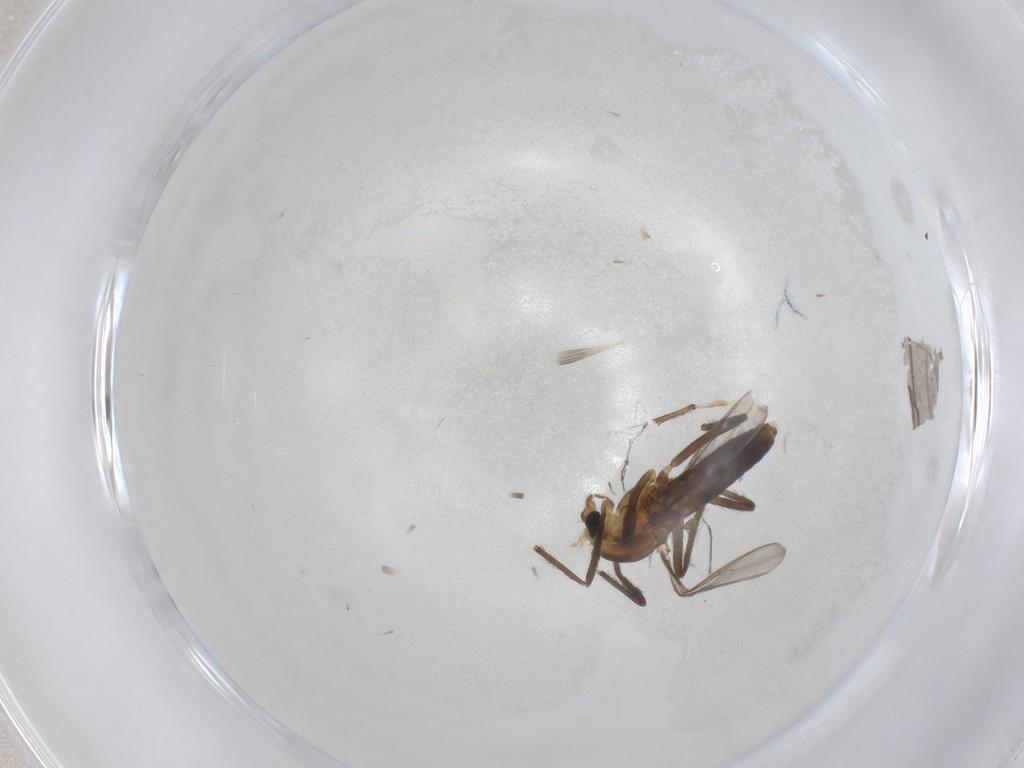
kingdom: Animalia
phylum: Arthropoda
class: Insecta
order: Diptera
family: Chironomidae
